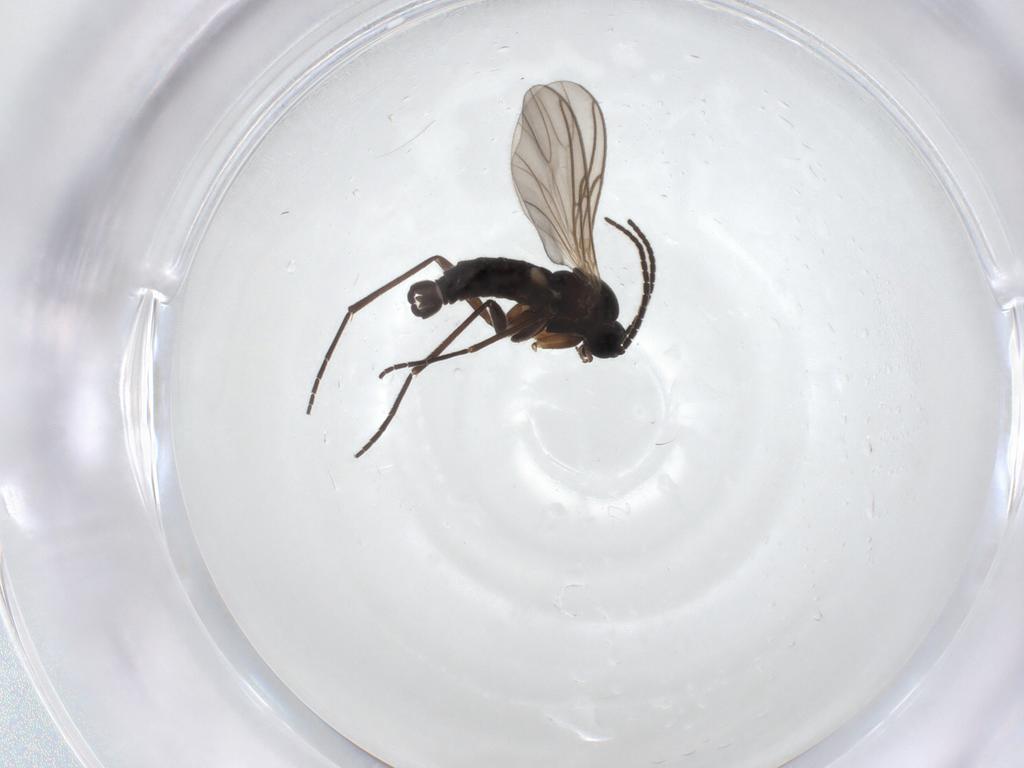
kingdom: Animalia
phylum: Arthropoda
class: Insecta
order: Diptera
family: Sciaridae
